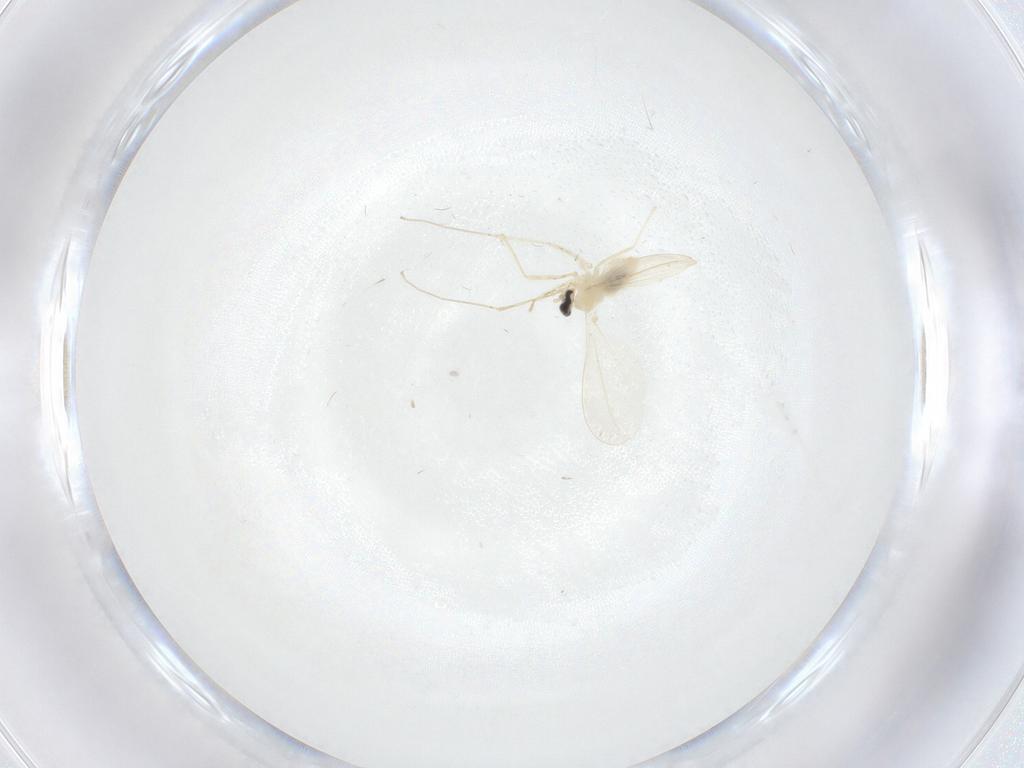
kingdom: Animalia
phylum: Arthropoda
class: Insecta
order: Diptera
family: Cecidomyiidae
